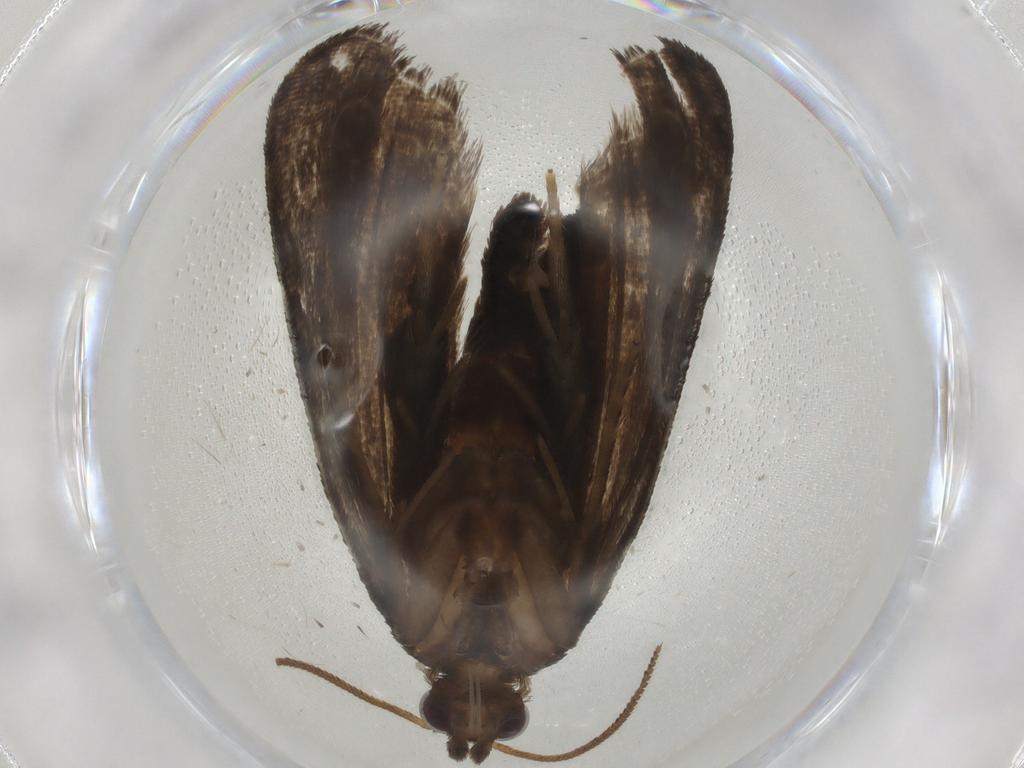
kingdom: Animalia
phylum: Arthropoda
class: Insecta
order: Lepidoptera
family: Tortricidae
